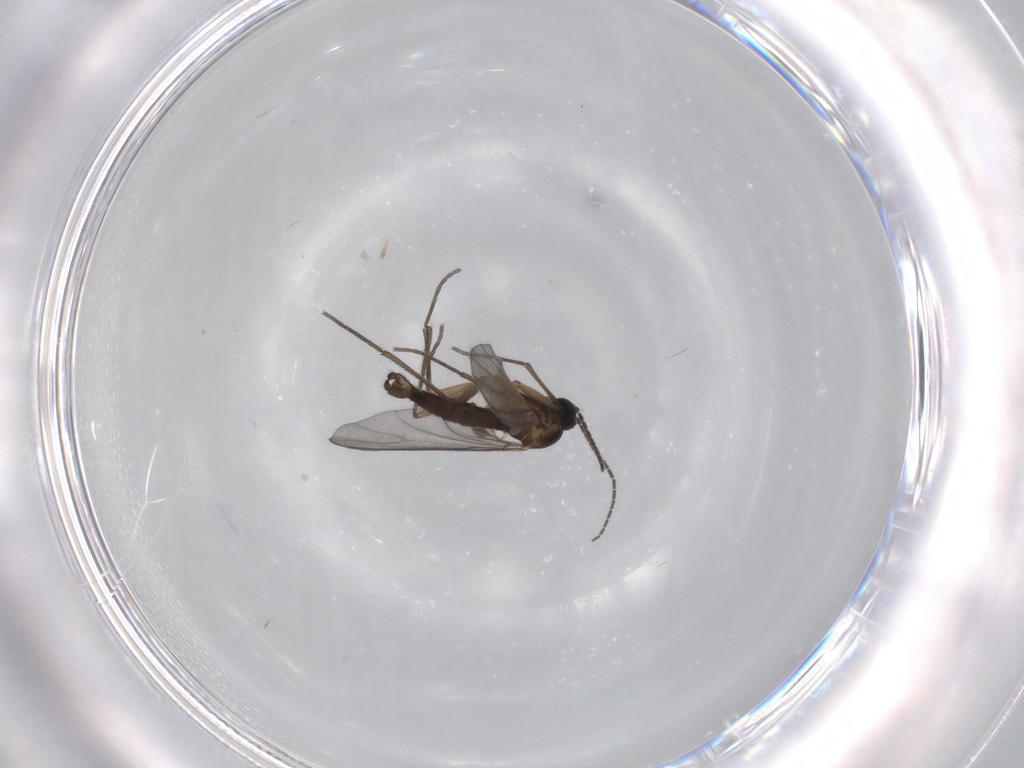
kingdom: Animalia
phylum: Arthropoda
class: Insecta
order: Diptera
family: Sciaridae
